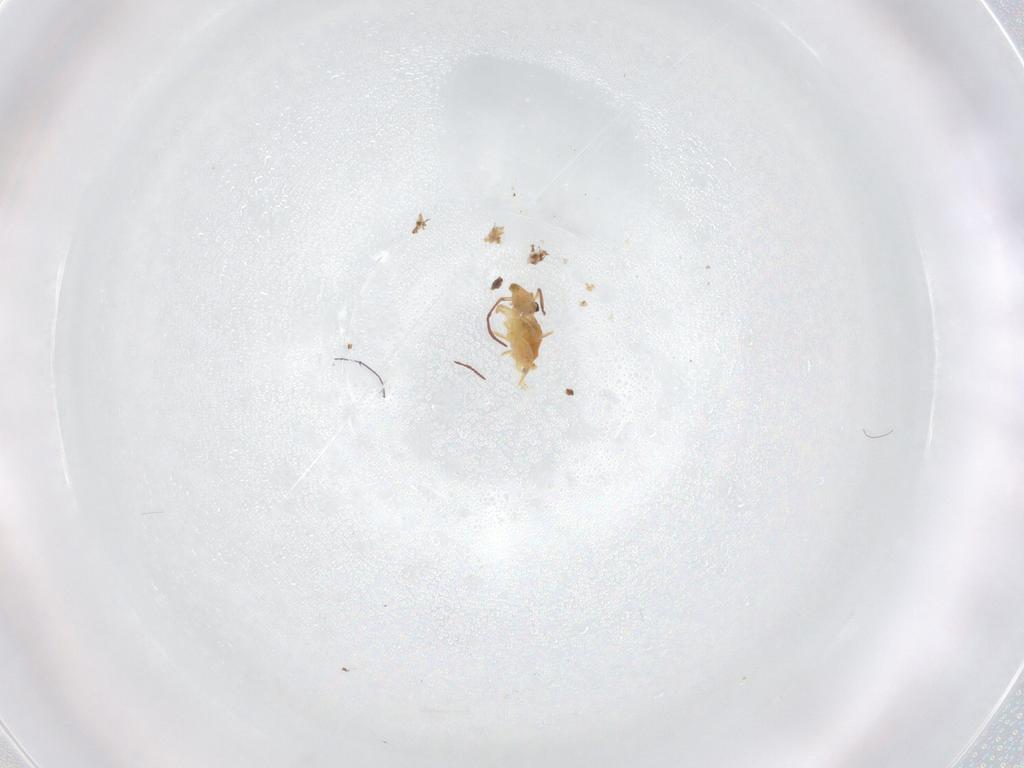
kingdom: Animalia
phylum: Arthropoda
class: Collembola
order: Symphypleona
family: Bourletiellidae
